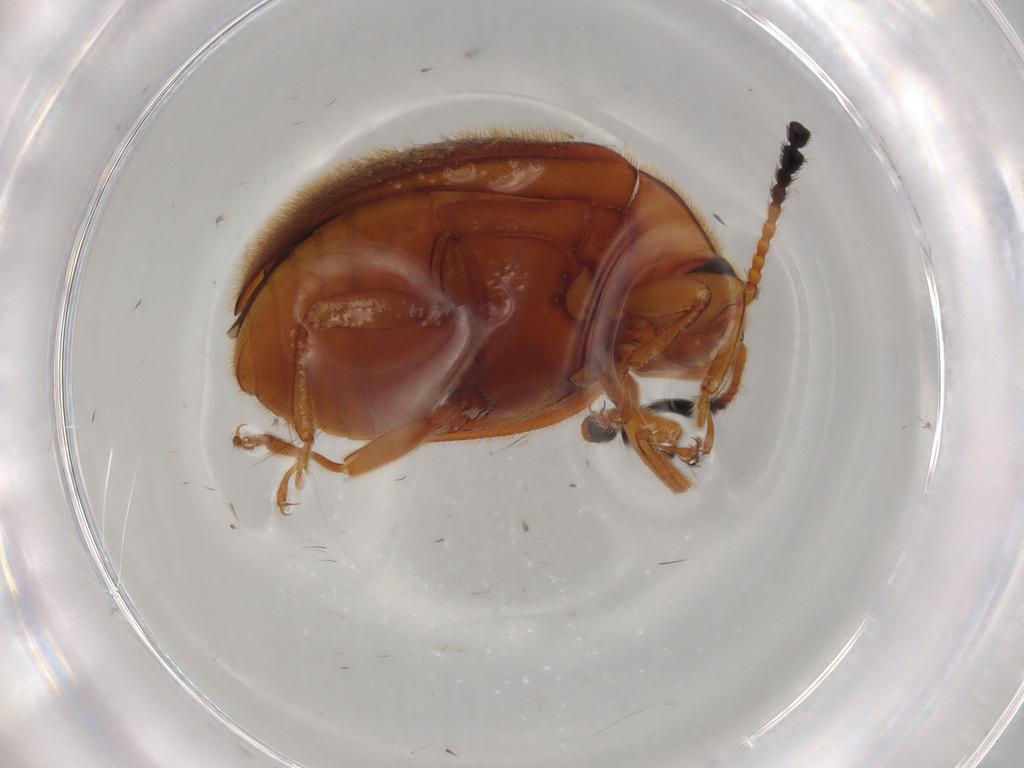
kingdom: Animalia
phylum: Arthropoda
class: Insecta
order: Coleoptera
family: Endomychidae
